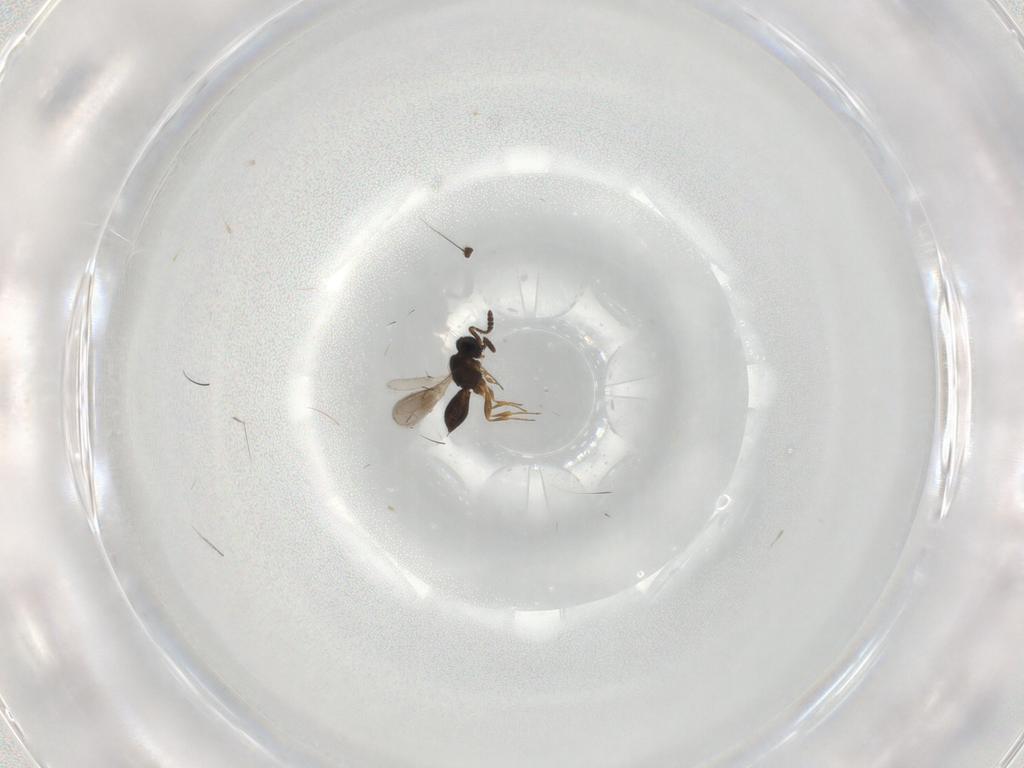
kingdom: Animalia
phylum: Arthropoda
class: Insecta
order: Hymenoptera
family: Scelionidae
